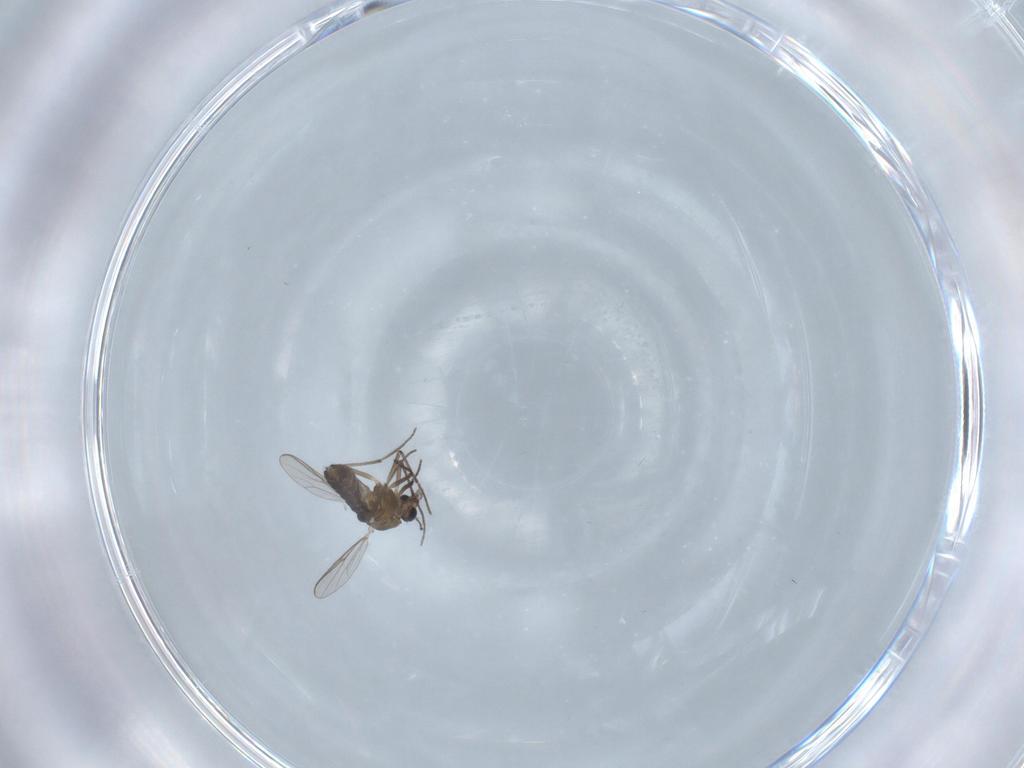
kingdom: Animalia
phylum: Arthropoda
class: Insecta
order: Diptera
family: Chironomidae
